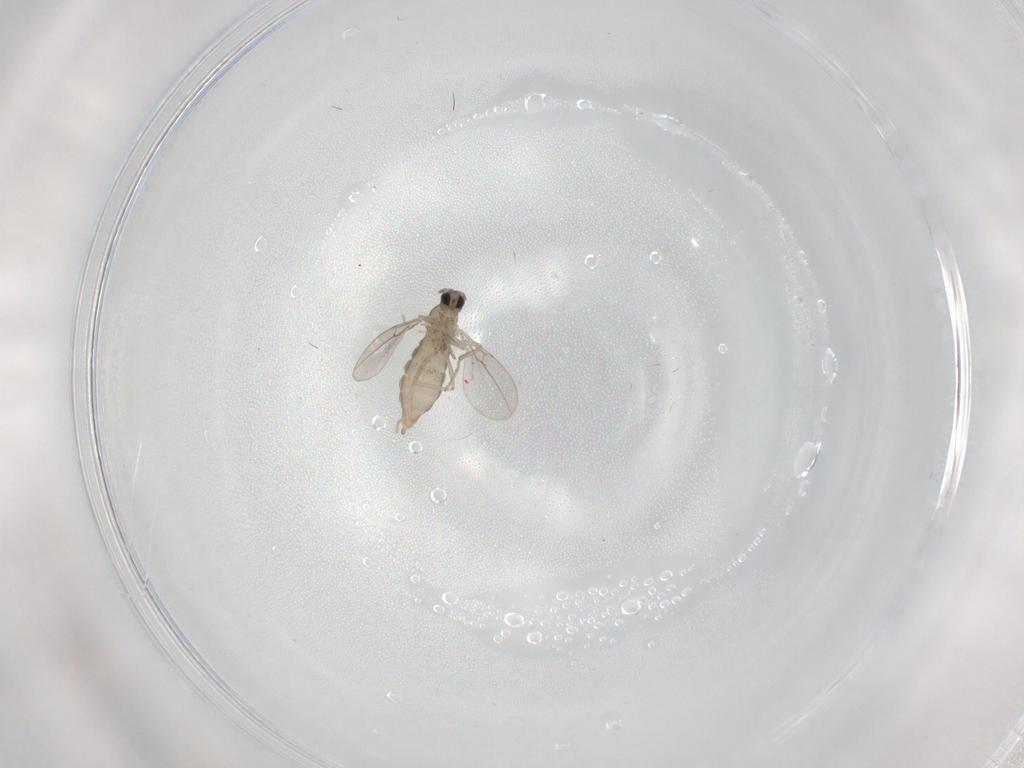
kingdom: Animalia
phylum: Arthropoda
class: Insecta
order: Diptera
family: Cecidomyiidae
